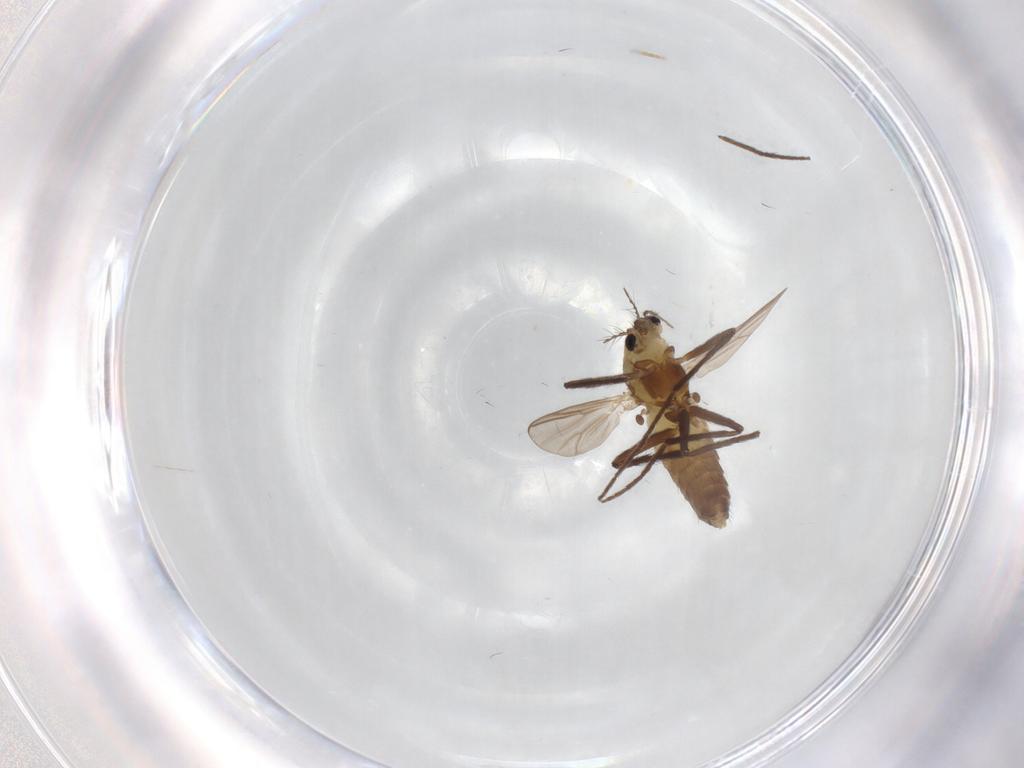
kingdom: Animalia
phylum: Arthropoda
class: Insecta
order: Diptera
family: Chironomidae
